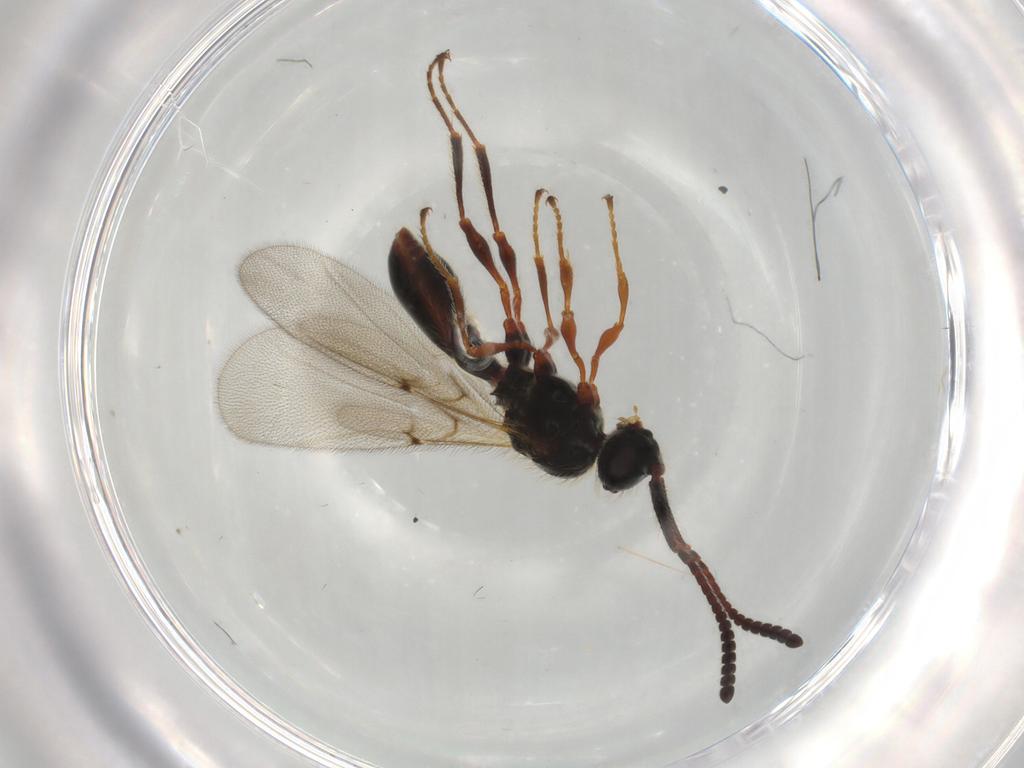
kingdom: Animalia
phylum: Arthropoda
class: Insecta
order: Hymenoptera
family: Diapriidae
